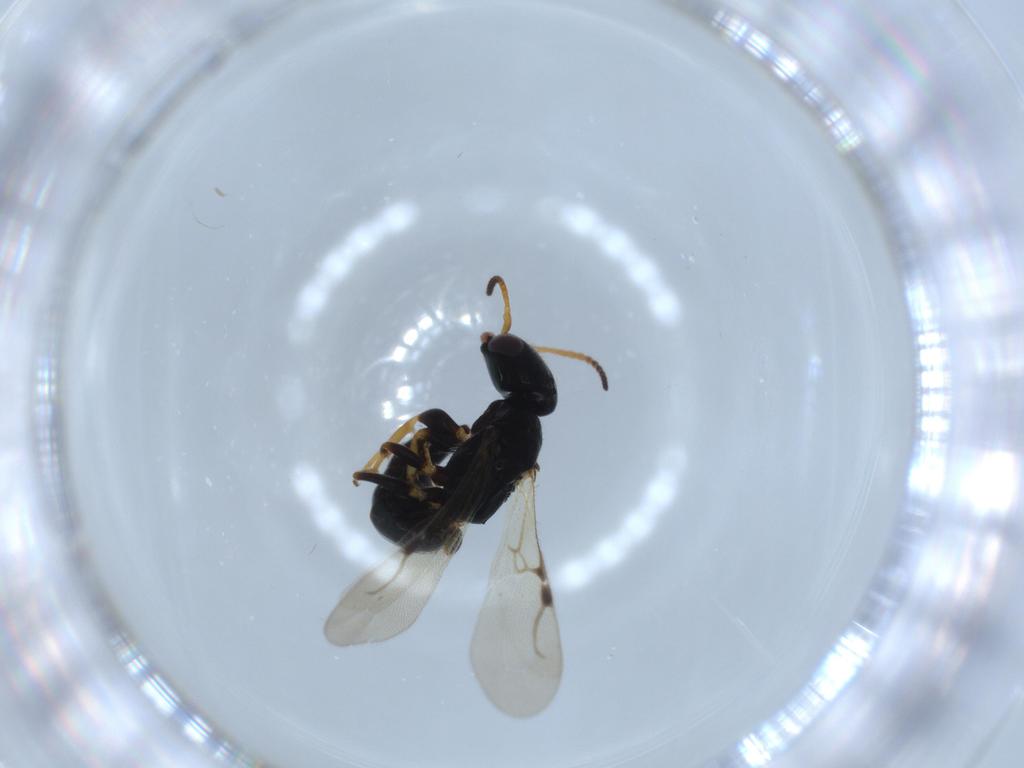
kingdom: Animalia
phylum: Arthropoda
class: Insecta
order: Hymenoptera
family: Bethylidae
